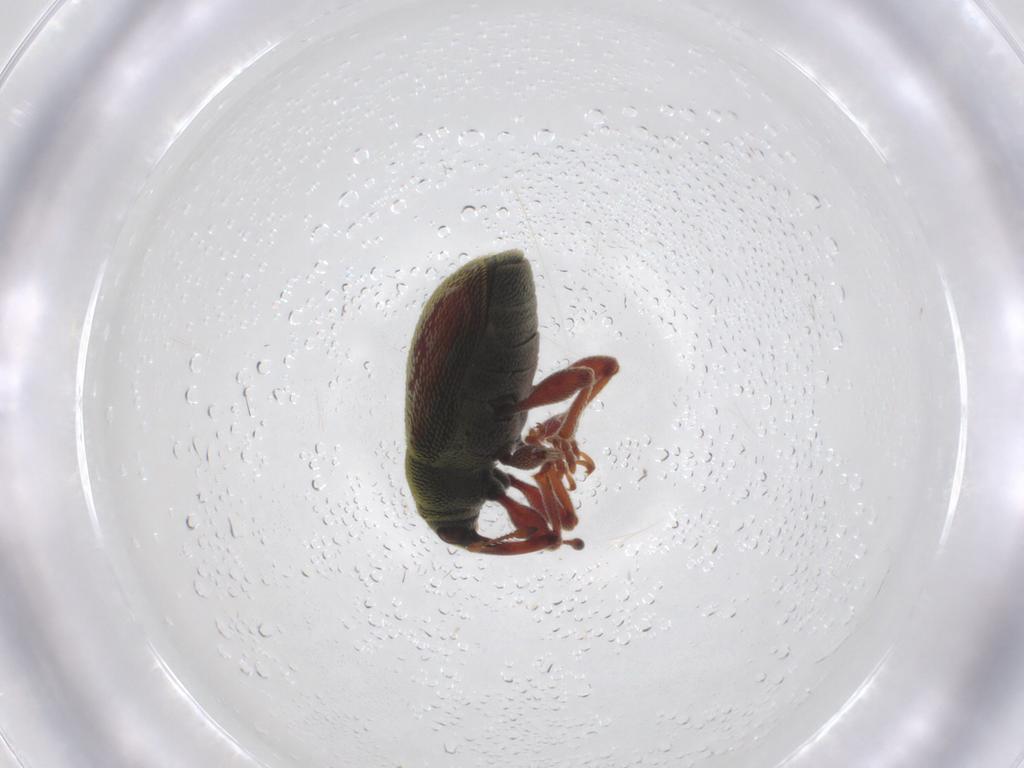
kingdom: Animalia
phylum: Arthropoda
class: Insecta
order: Coleoptera
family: Rhadalidae
